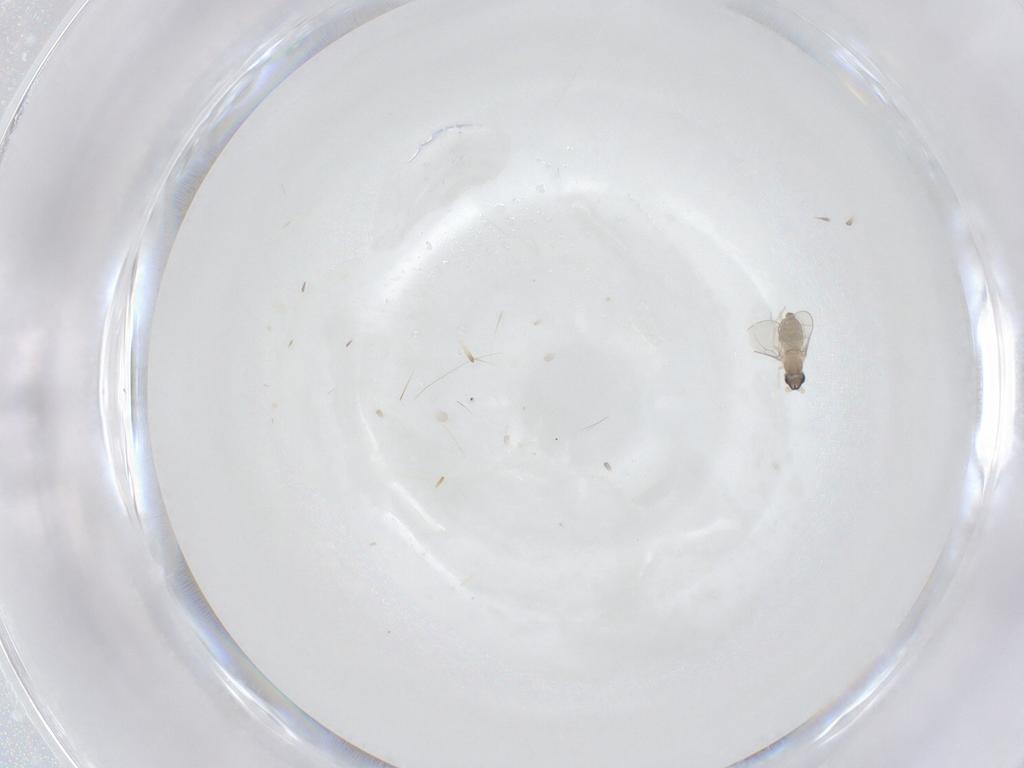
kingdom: Animalia
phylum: Arthropoda
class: Insecta
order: Diptera
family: Cecidomyiidae
